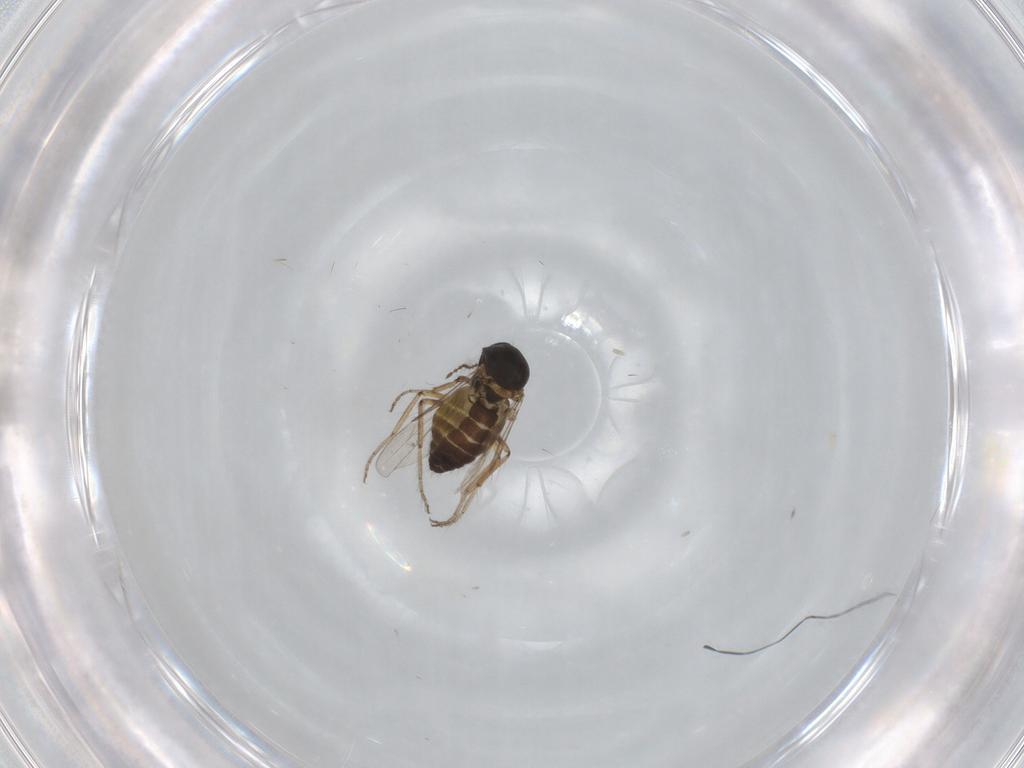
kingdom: Animalia
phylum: Arthropoda
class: Insecta
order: Diptera
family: Ceratopogonidae
